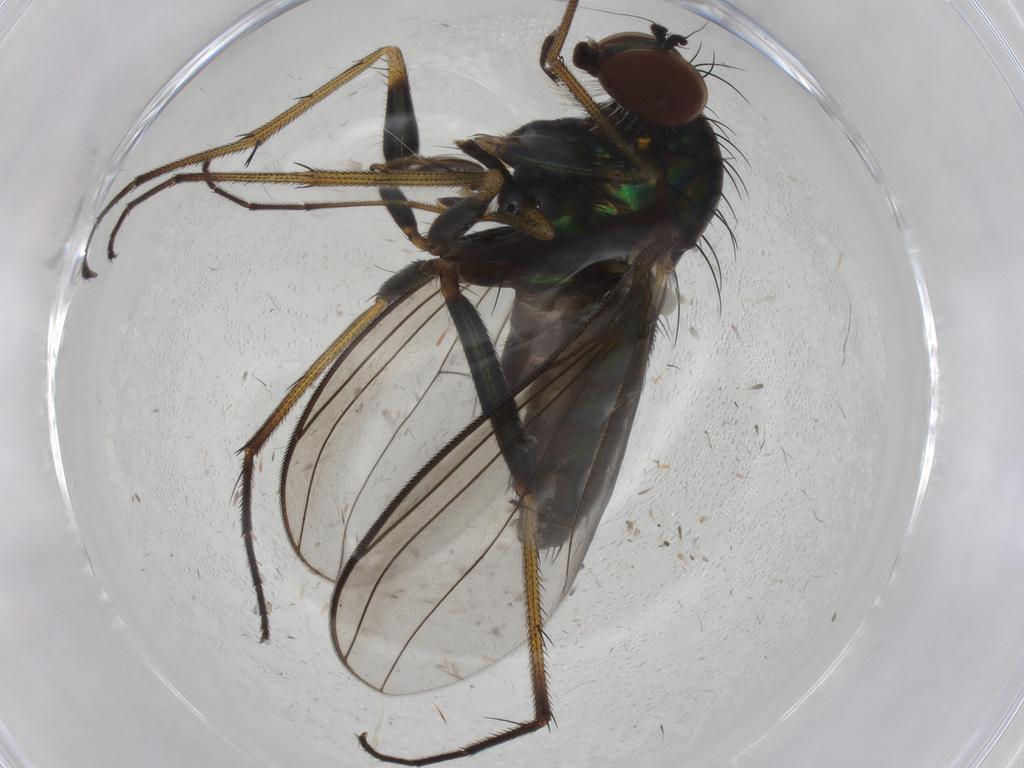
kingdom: Animalia
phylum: Arthropoda
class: Insecta
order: Diptera
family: Dolichopodidae
